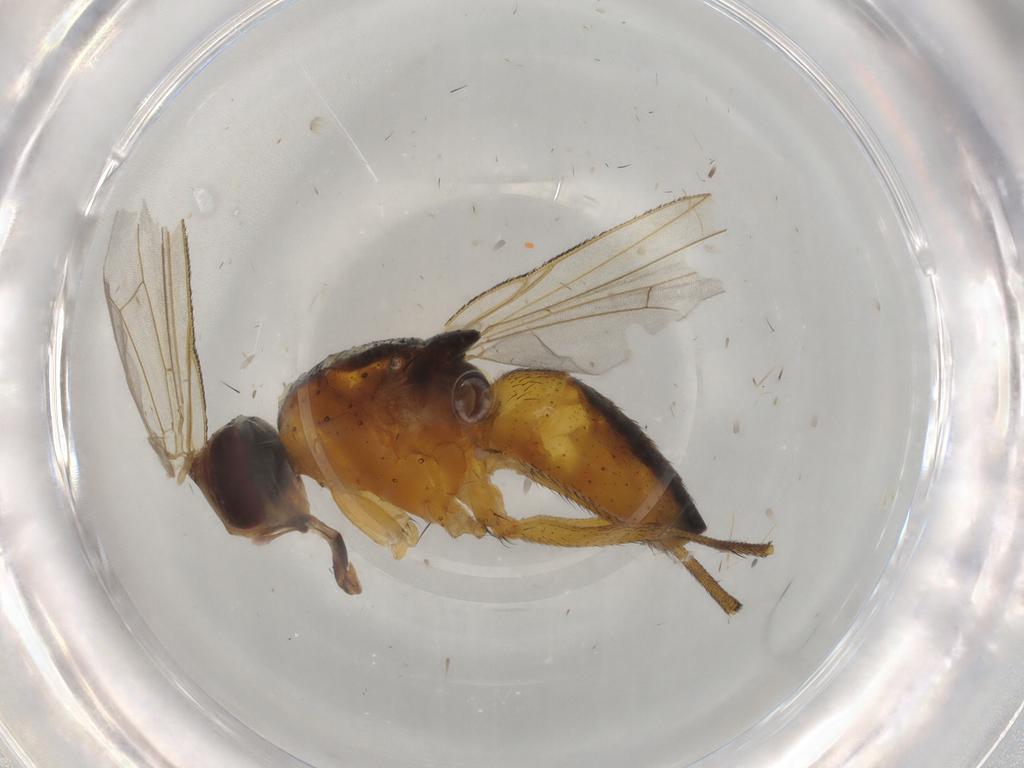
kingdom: Animalia
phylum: Arthropoda
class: Insecta
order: Diptera
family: Muscidae
